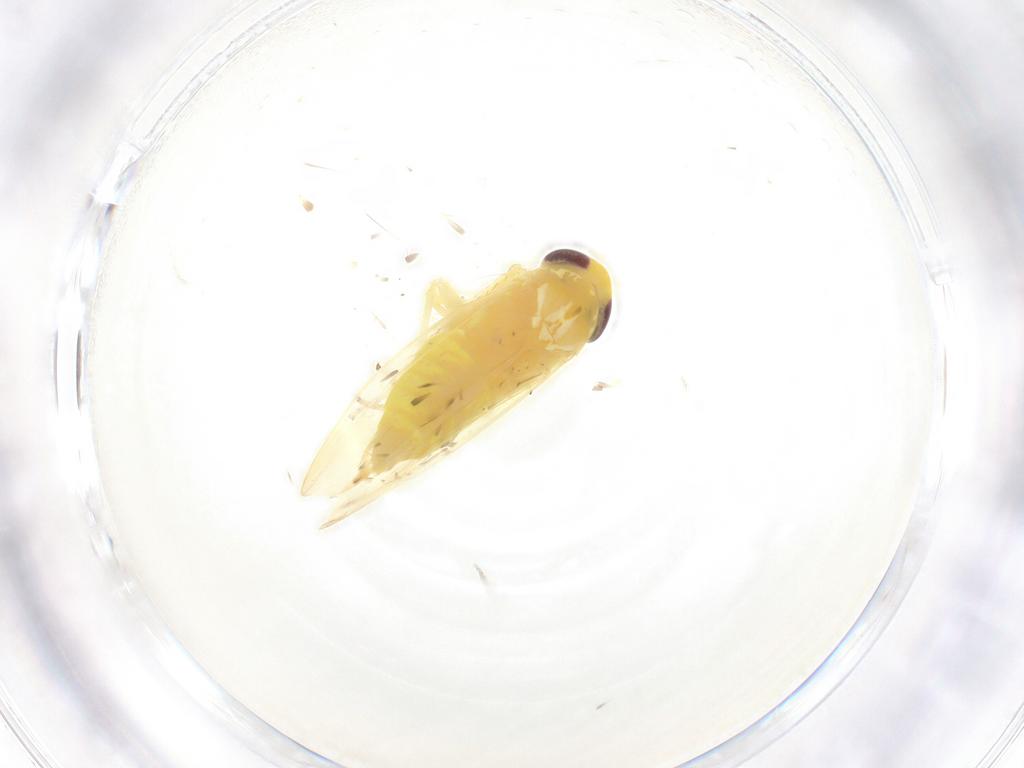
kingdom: Animalia
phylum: Arthropoda
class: Insecta
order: Hemiptera
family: Cicadellidae
